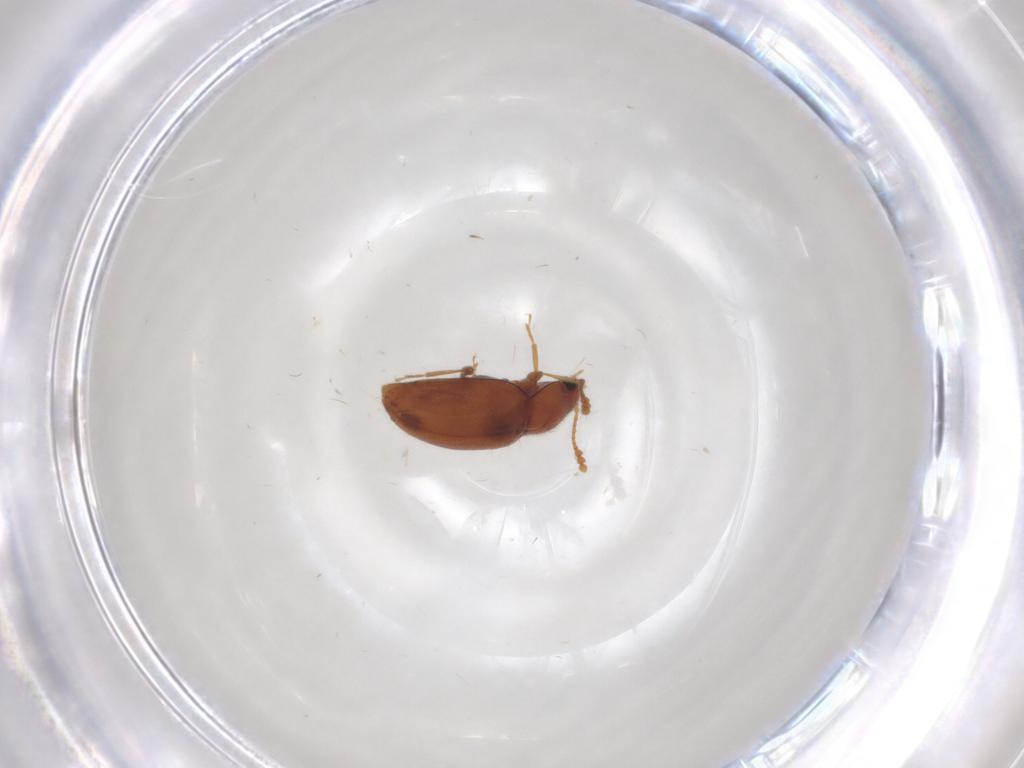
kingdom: Animalia
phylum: Arthropoda
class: Insecta
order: Coleoptera
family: Erotylidae
